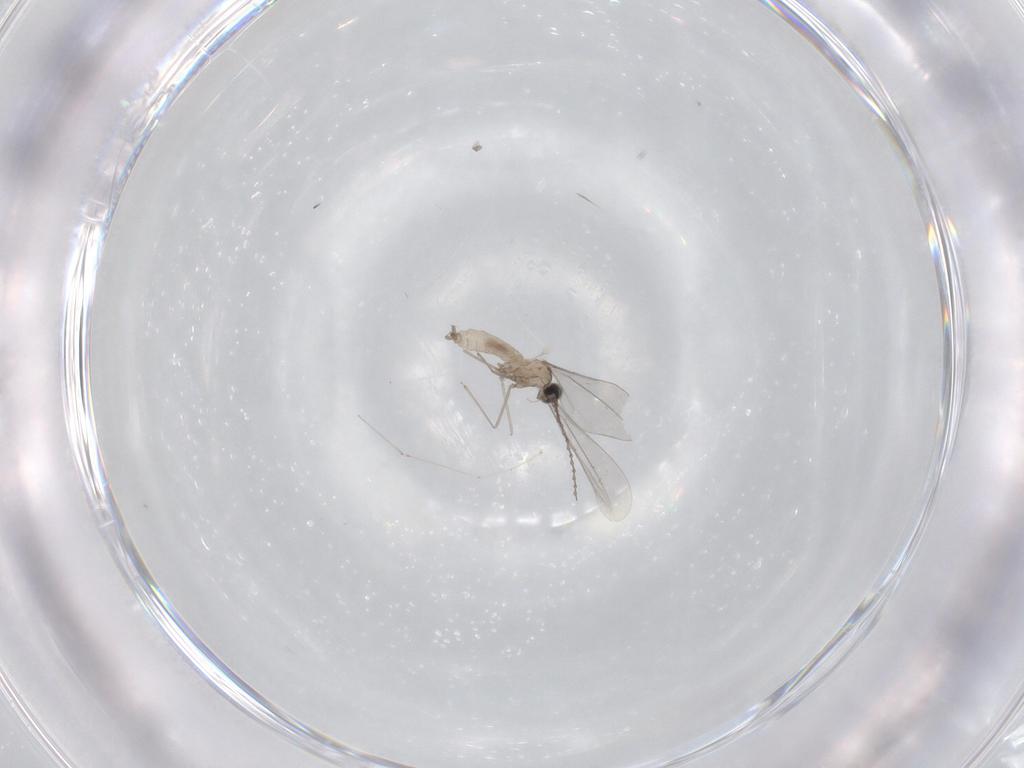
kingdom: Animalia
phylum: Arthropoda
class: Insecta
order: Diptera
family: Cecidomyiidae
